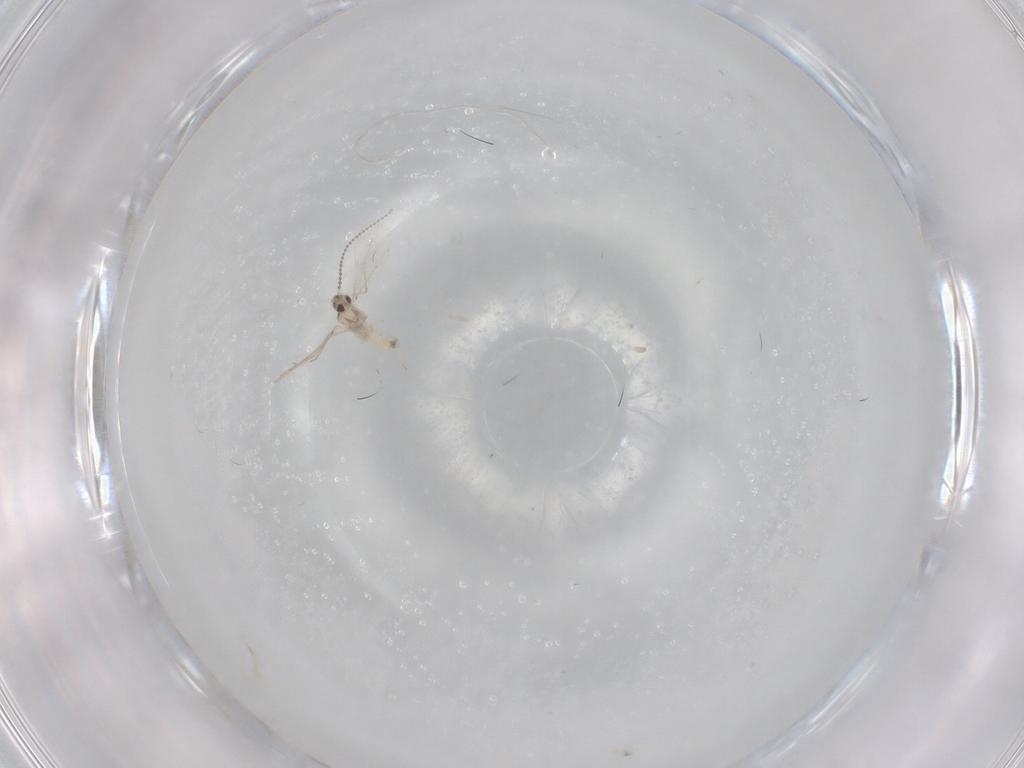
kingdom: Animalia
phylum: Arthropoda
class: Insecta
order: Diptera
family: Cecidomyiidae
